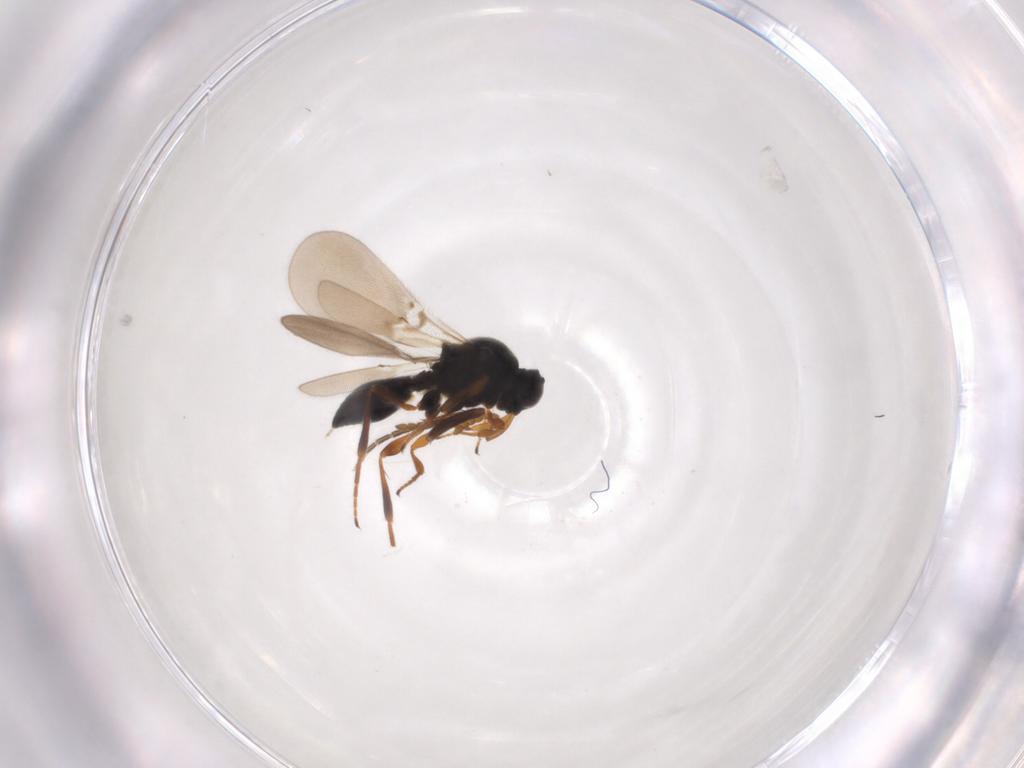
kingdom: Animalia
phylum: Arthropoda
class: Insecta
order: Hymenoptera
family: Platygastridae
